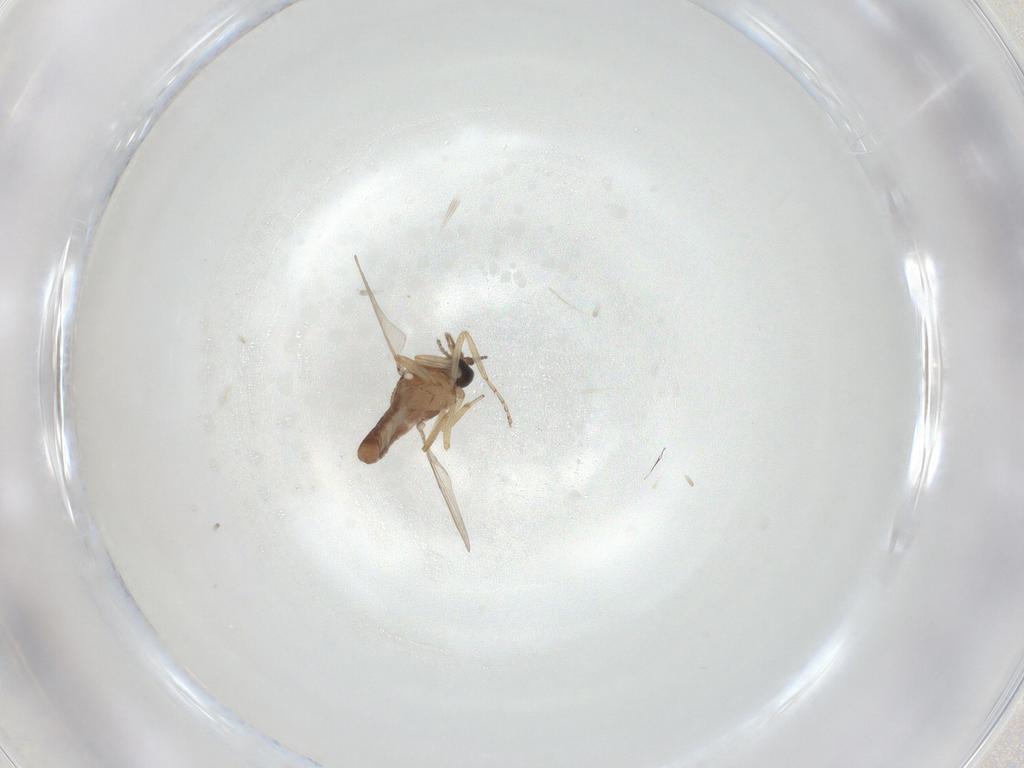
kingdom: Animalia
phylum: Arthropoda
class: Insecta
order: Diptera
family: Ceratopogonidae
